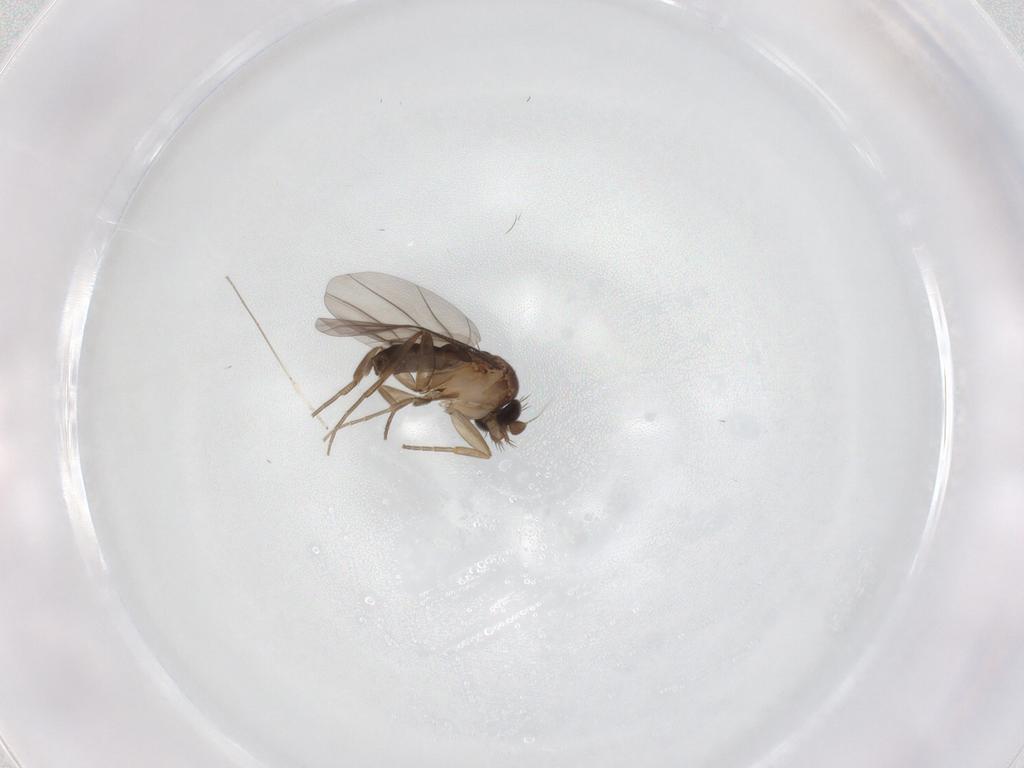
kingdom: Animalia
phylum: Arthropoda
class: Insecta
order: Diptera
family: Phoridae
